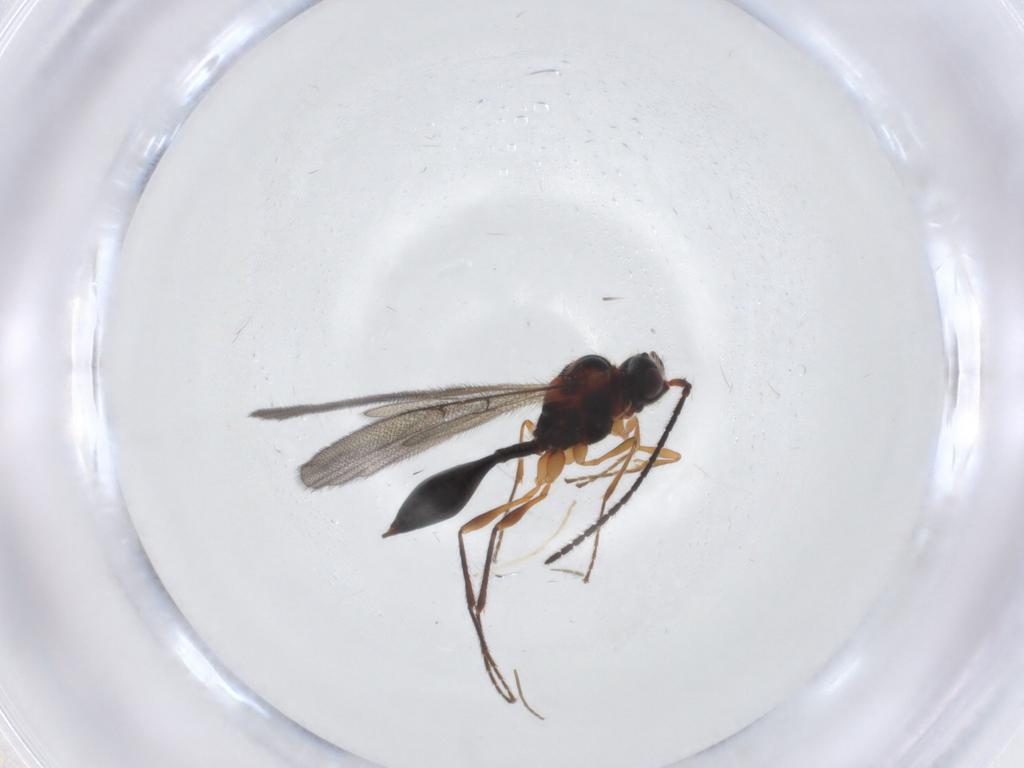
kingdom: Animalia
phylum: Arthropoda
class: Insecta
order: Hymenoptera
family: Diapriidae
